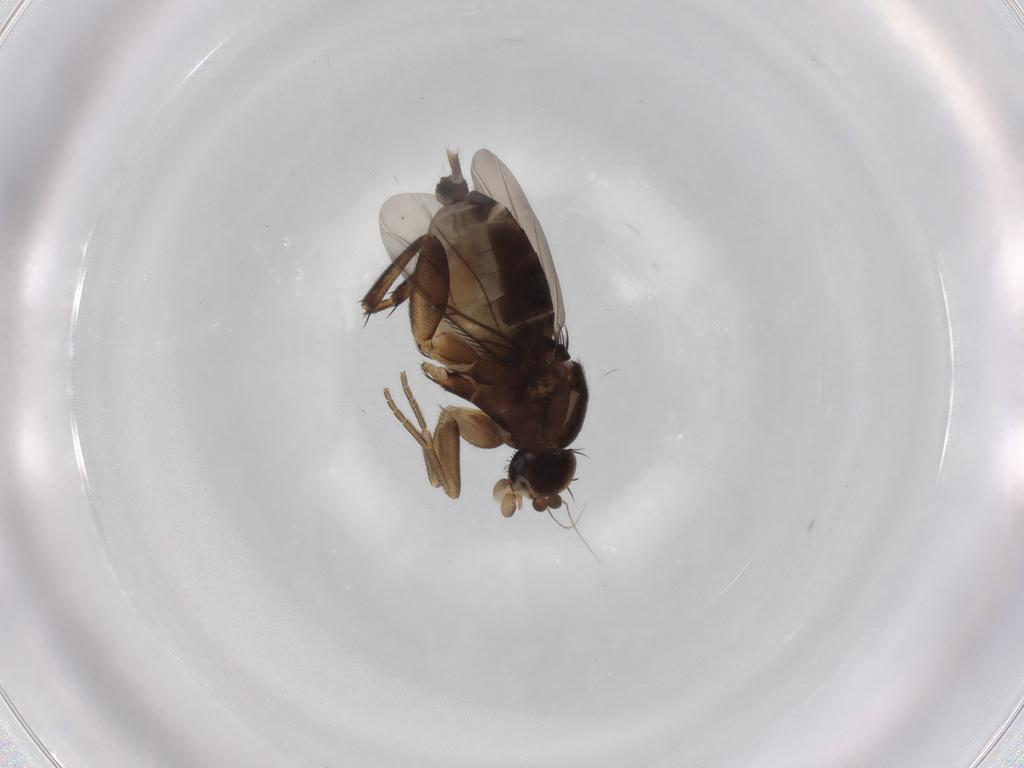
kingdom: Animalia
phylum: Arthropoda
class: Insecta
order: Diptera
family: Phoridae
